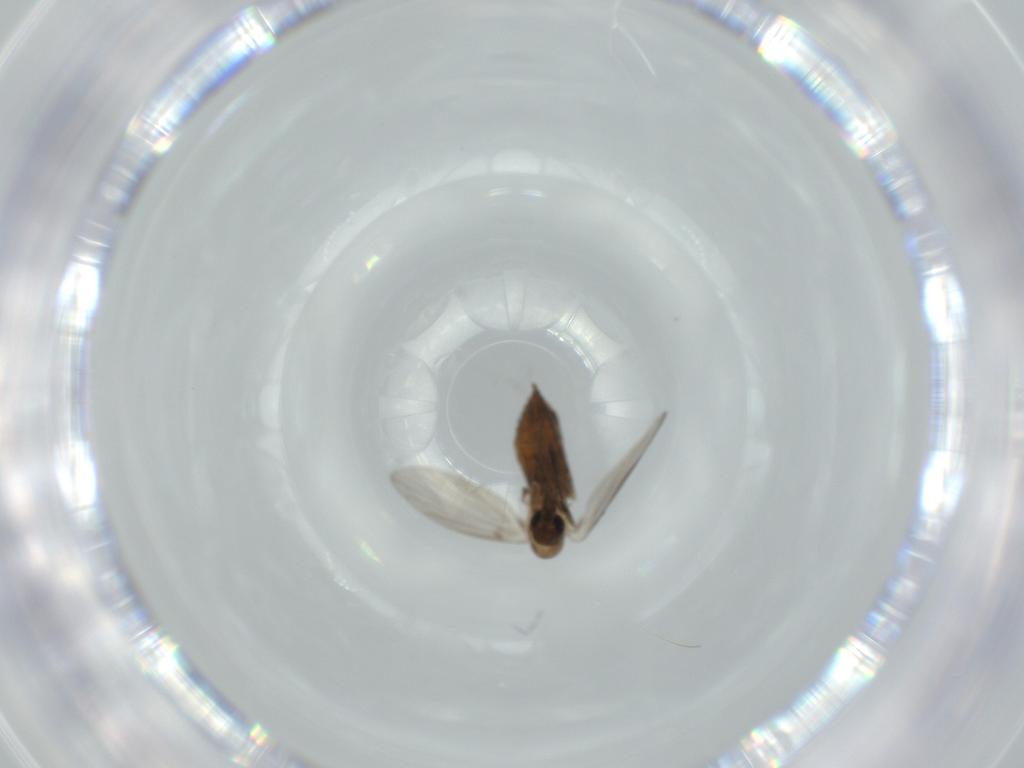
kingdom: Animalia
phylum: Arthropoda
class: Insecta
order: Diptera
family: Psychodidae
